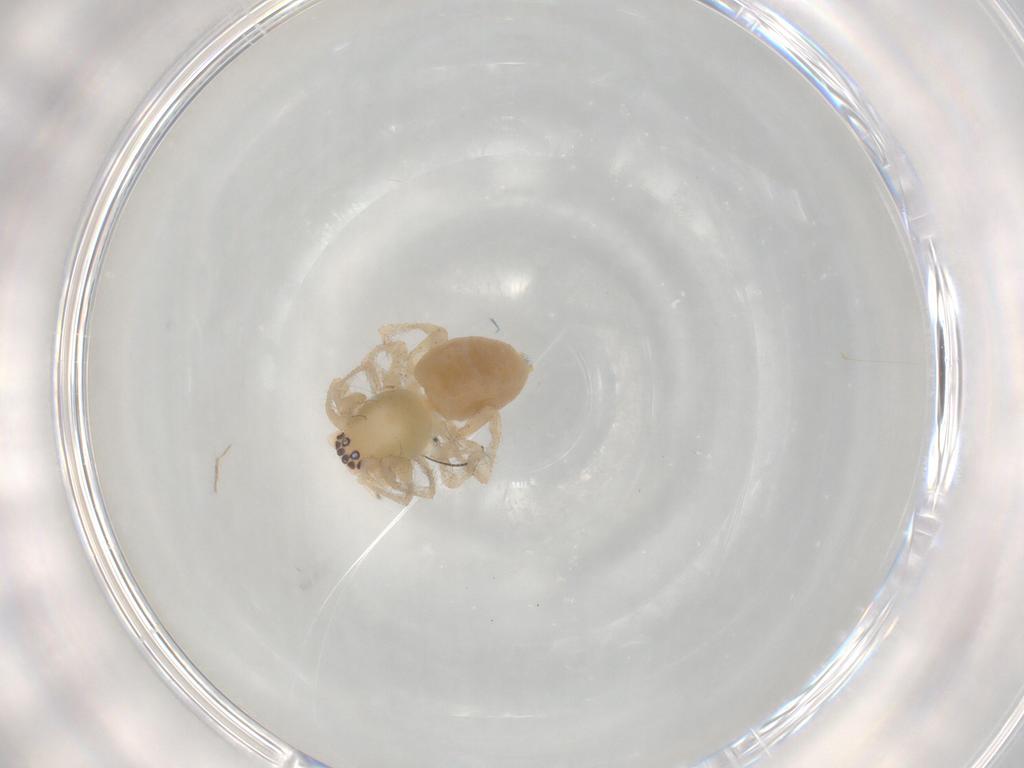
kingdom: Animalia
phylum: Arthropoda
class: Arachnida
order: Araneae
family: Clubionidae
